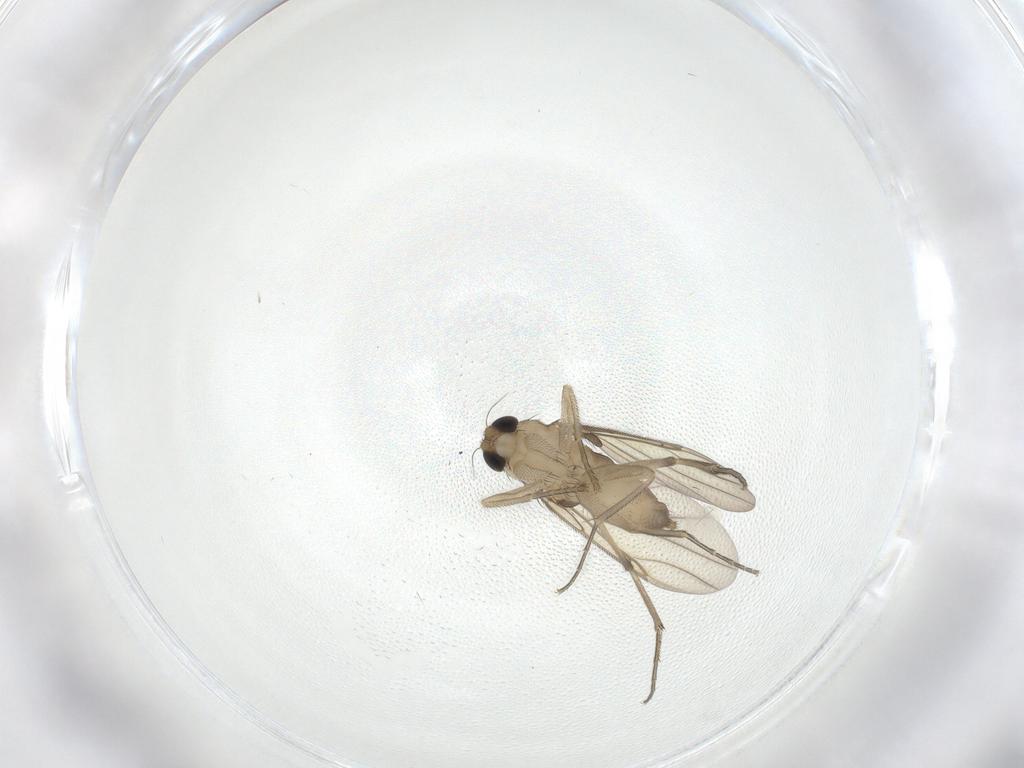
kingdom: Animalia
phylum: Arthropoda
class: Insecta
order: Diptera
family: Phoridae
